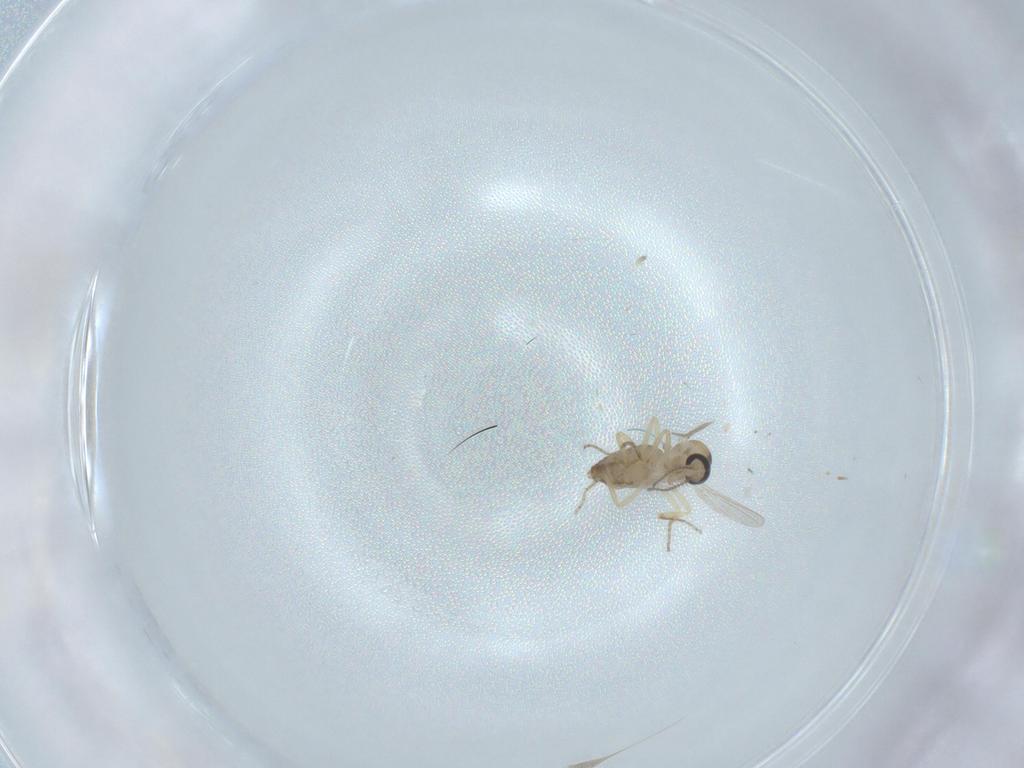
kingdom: Animalia
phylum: Arthropoda
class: Insecta
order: Diptera
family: Ceratopogonidae
